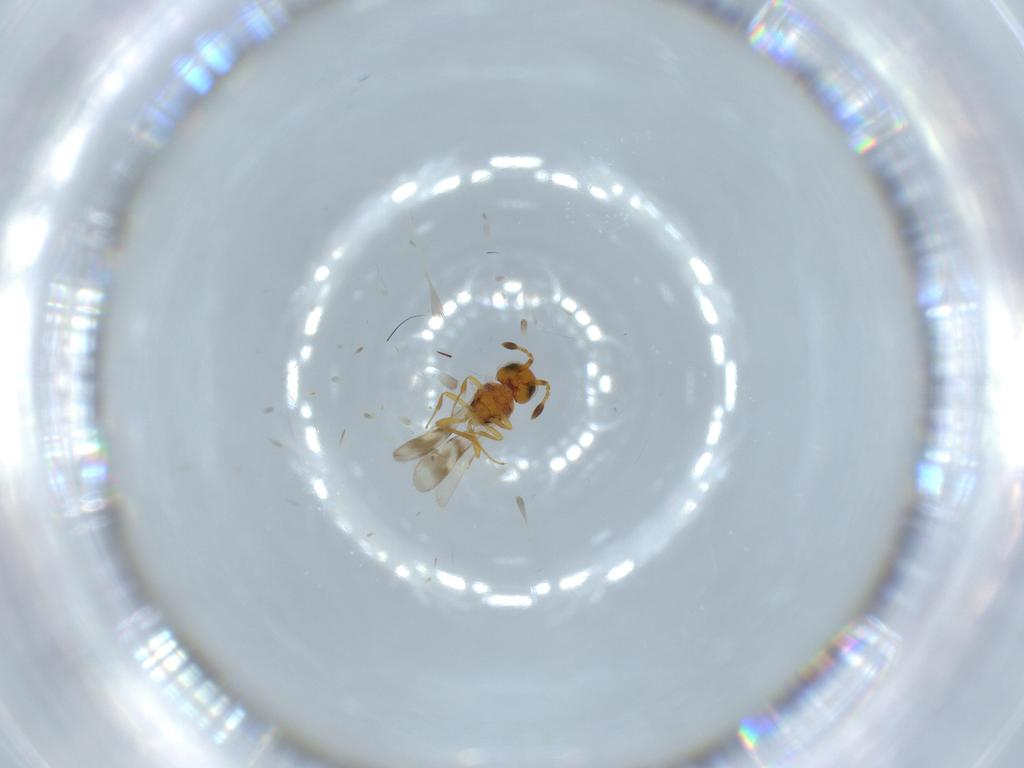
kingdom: Animalia
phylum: Arthropoda
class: Insecta
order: Hymenoptera
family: Scelionidae
